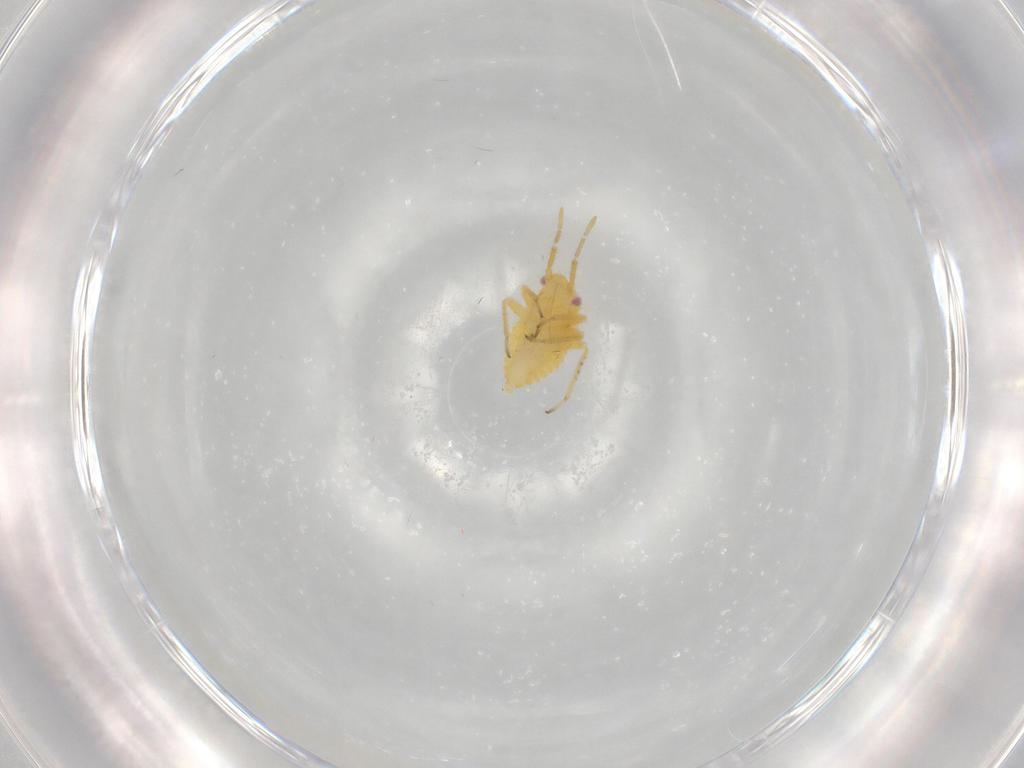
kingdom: Animalia
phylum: Arthropoda
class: Insecta
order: Hemiptera
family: Miridae
